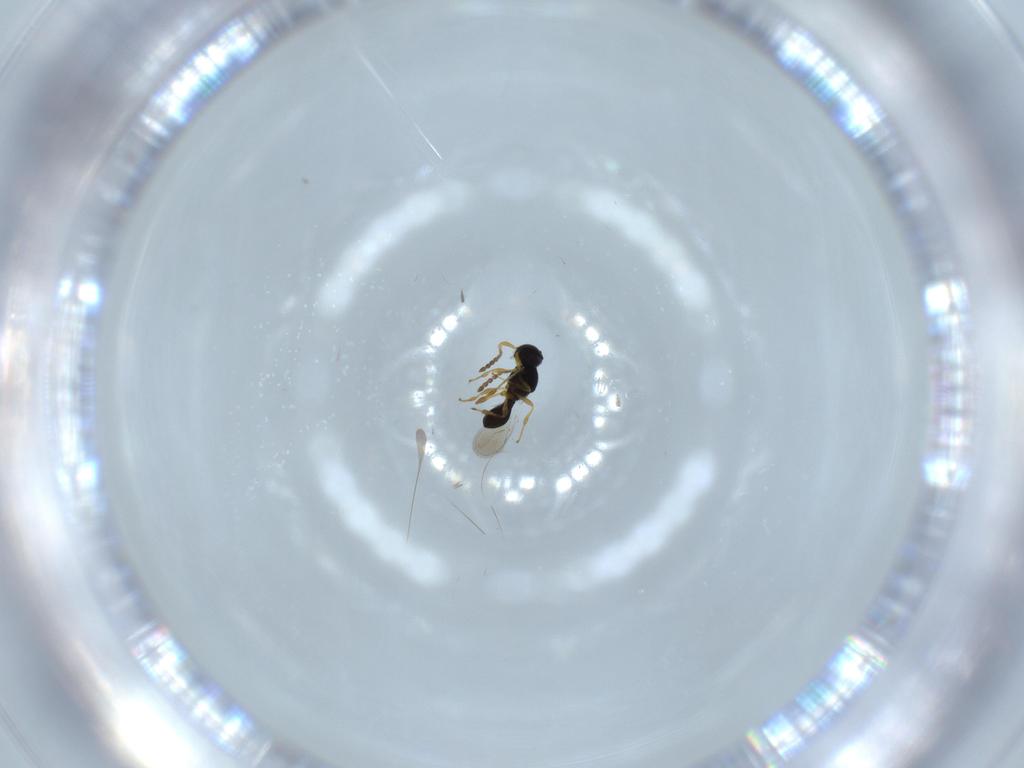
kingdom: Animalia
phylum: Arthropoda
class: Insecta
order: Hymenoptera
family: Platygastridae
